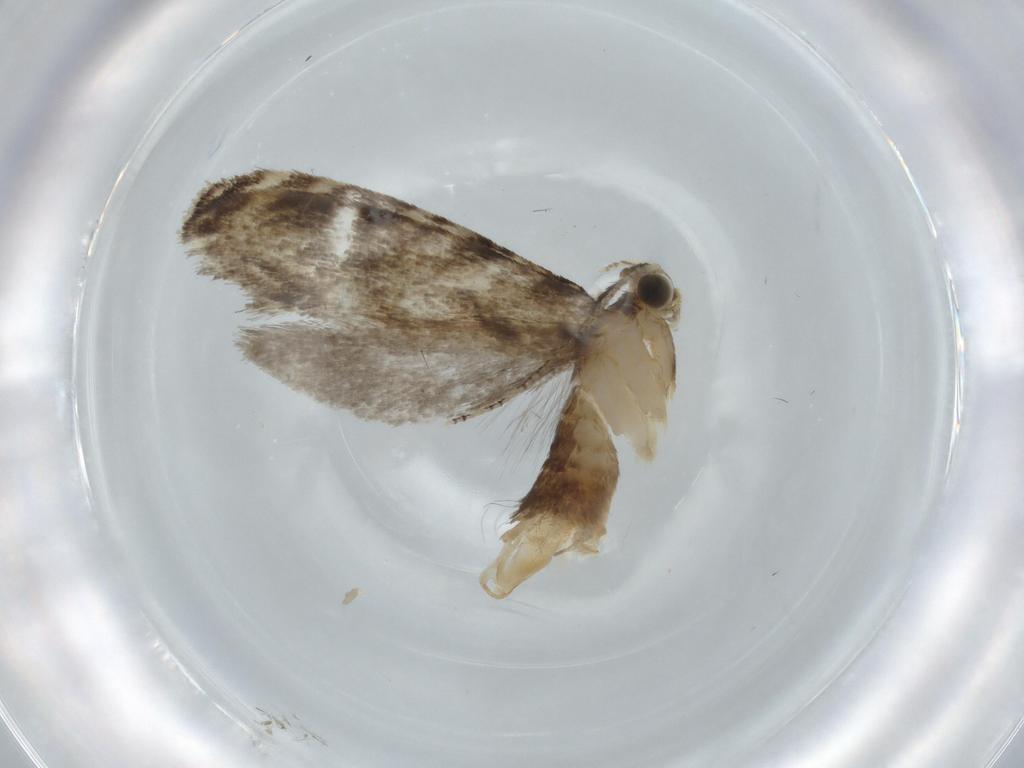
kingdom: Animalia
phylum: Arthropoda
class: Insecta
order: Lepidoptera
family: Tineidae
